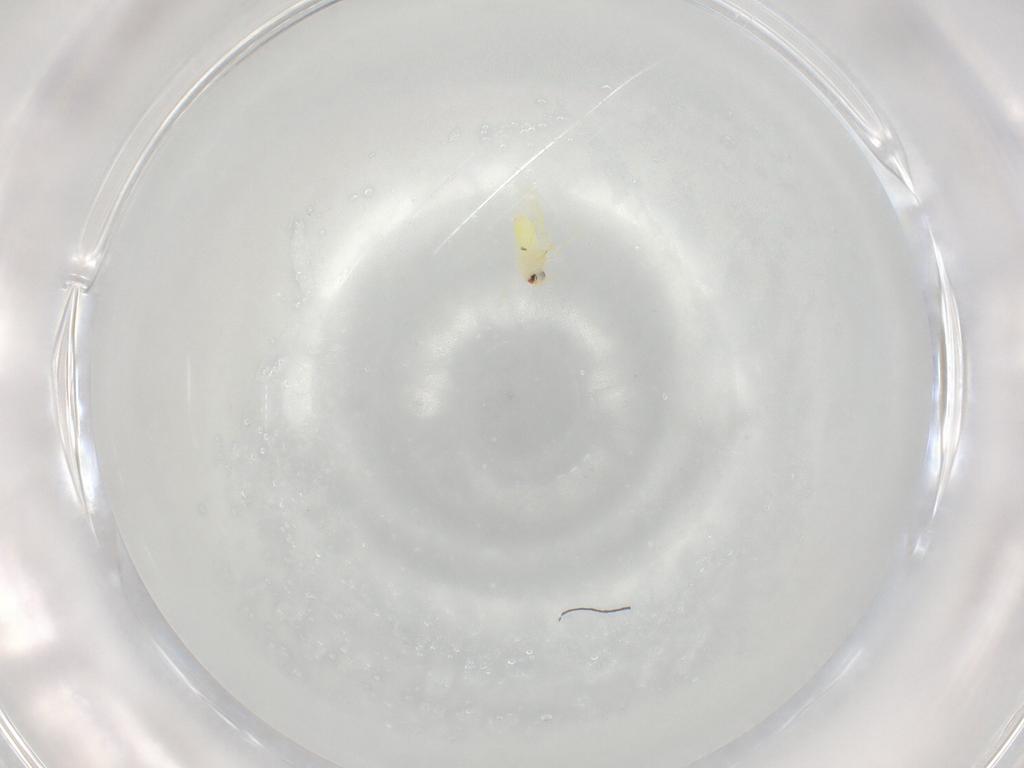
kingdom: Animalia
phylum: Arthropoda
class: Insecta
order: Hemiptera
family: Aleyrodidae
